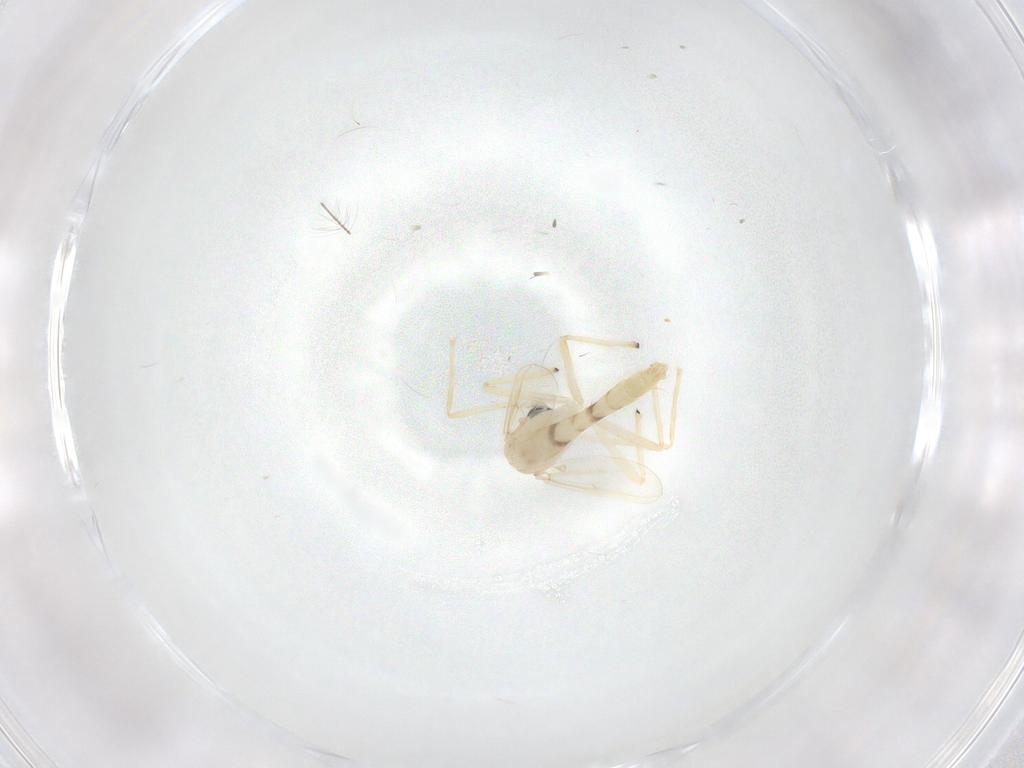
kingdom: Animalia
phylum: Arthropoda
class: Insecta
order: Diptera
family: Chironomidae
